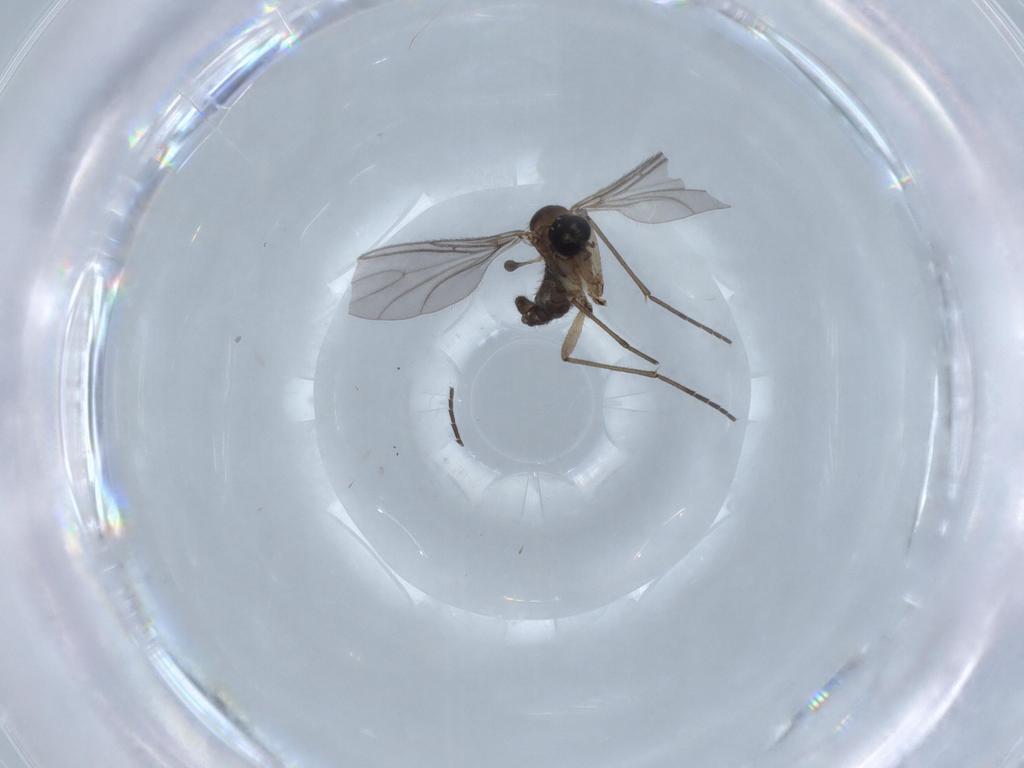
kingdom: Animalia
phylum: Arthropoda
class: Insecta
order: Diptera
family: Sciaridae
